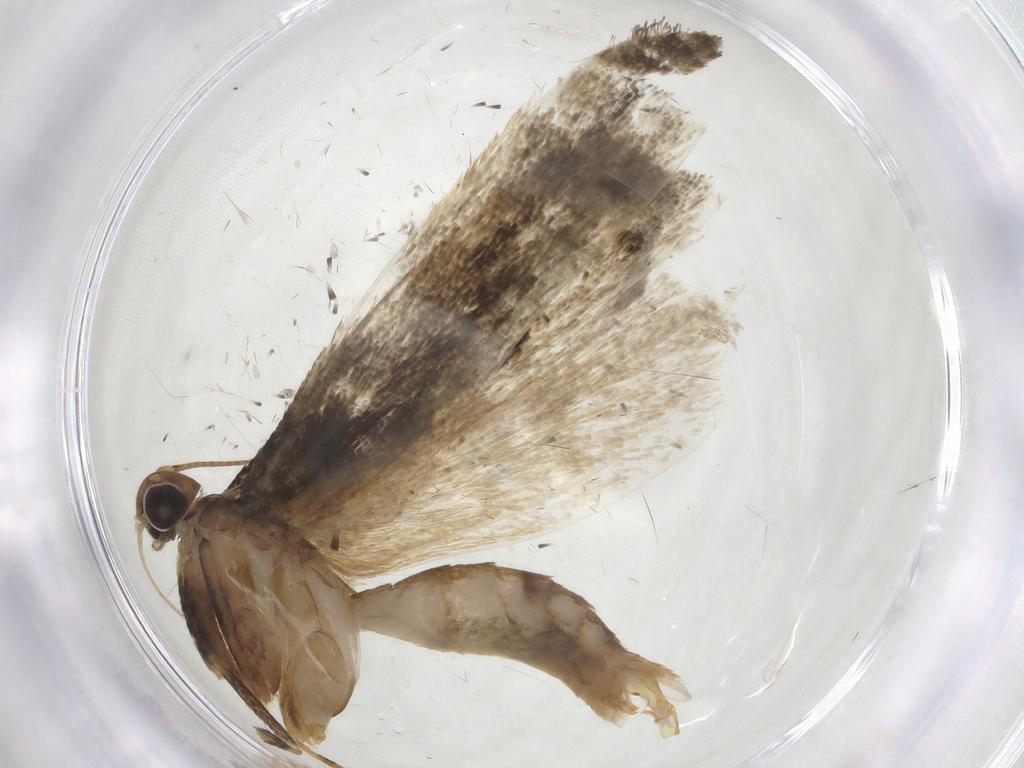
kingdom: Animalia
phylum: Arthropoda
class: Insecta
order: Lepidoptera
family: Gelechiidae
